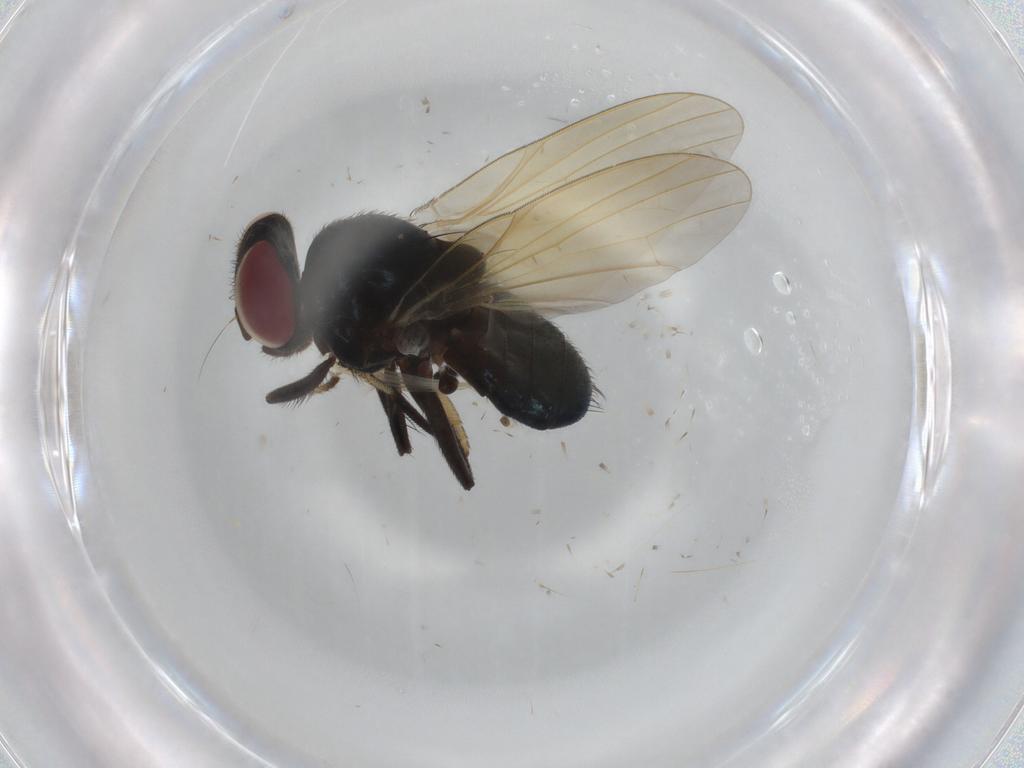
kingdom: Animalia
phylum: Arthropoda
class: Insecta
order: Diptera
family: Lonchaeidae
